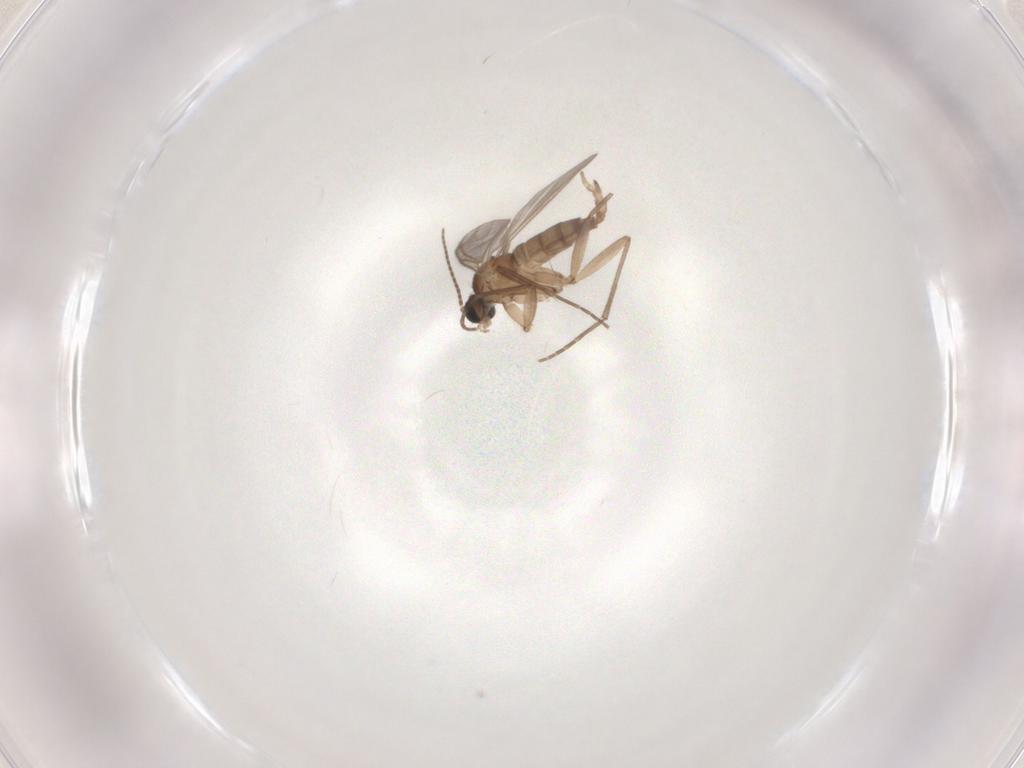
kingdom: Animalia
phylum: Arthropoda
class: Insecta
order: Diptera
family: Sciaridae
